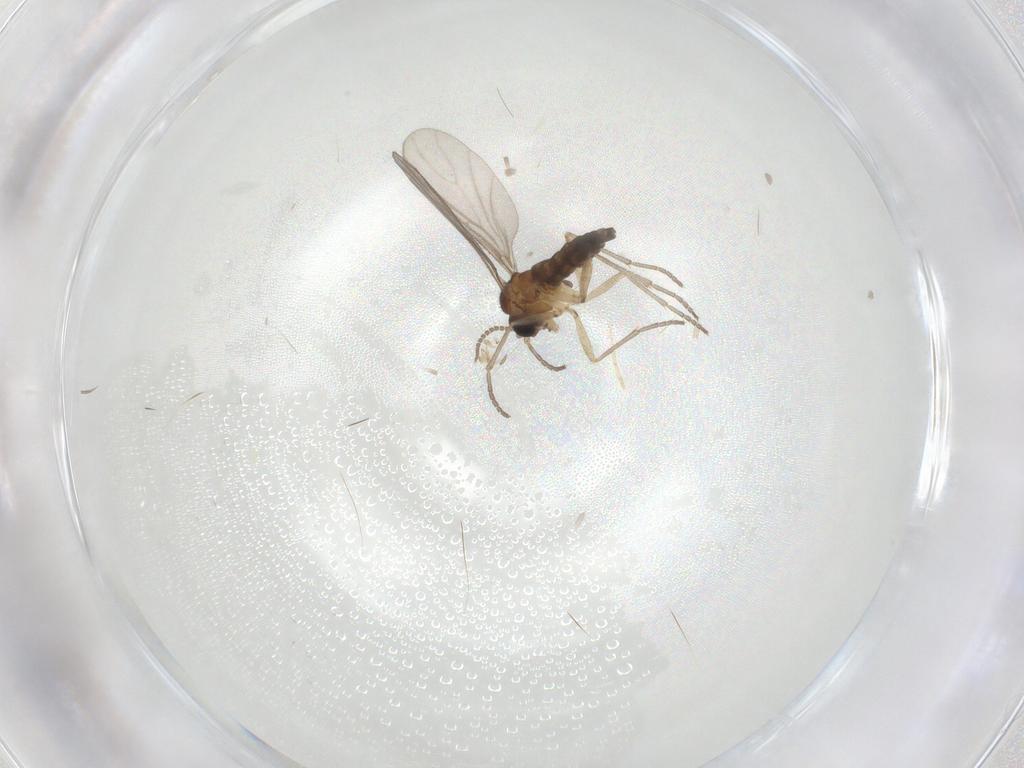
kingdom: Animalia
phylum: Arthropoda
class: Insecta
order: Diptera
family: Sciaridae
